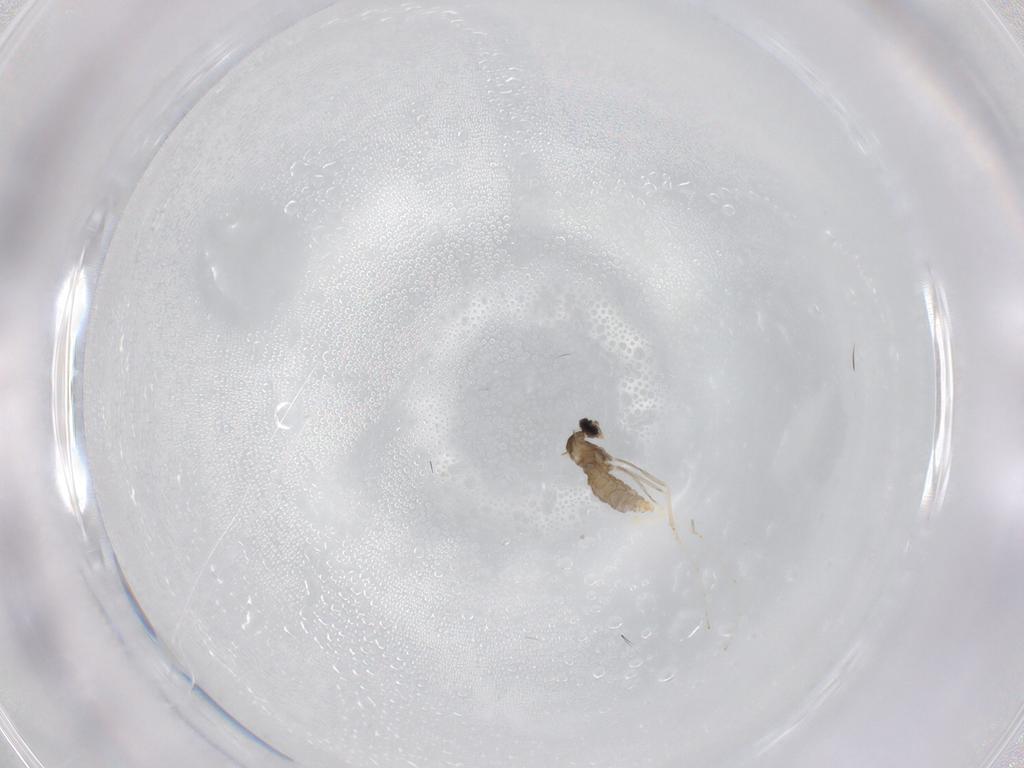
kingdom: Animalia
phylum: Arthropoda
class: Insecta
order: Diptera
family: Cecidomyiidae
